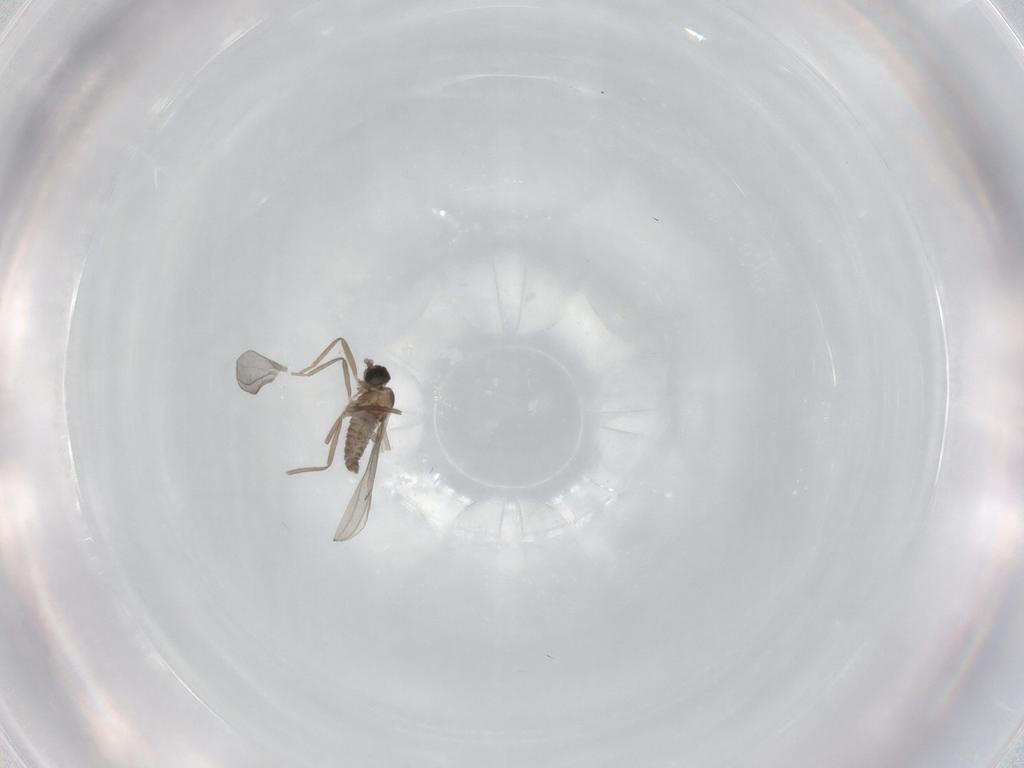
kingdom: Animalia
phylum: Arthropoda
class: Insecta
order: Diptera
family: Cecidomyiidae
